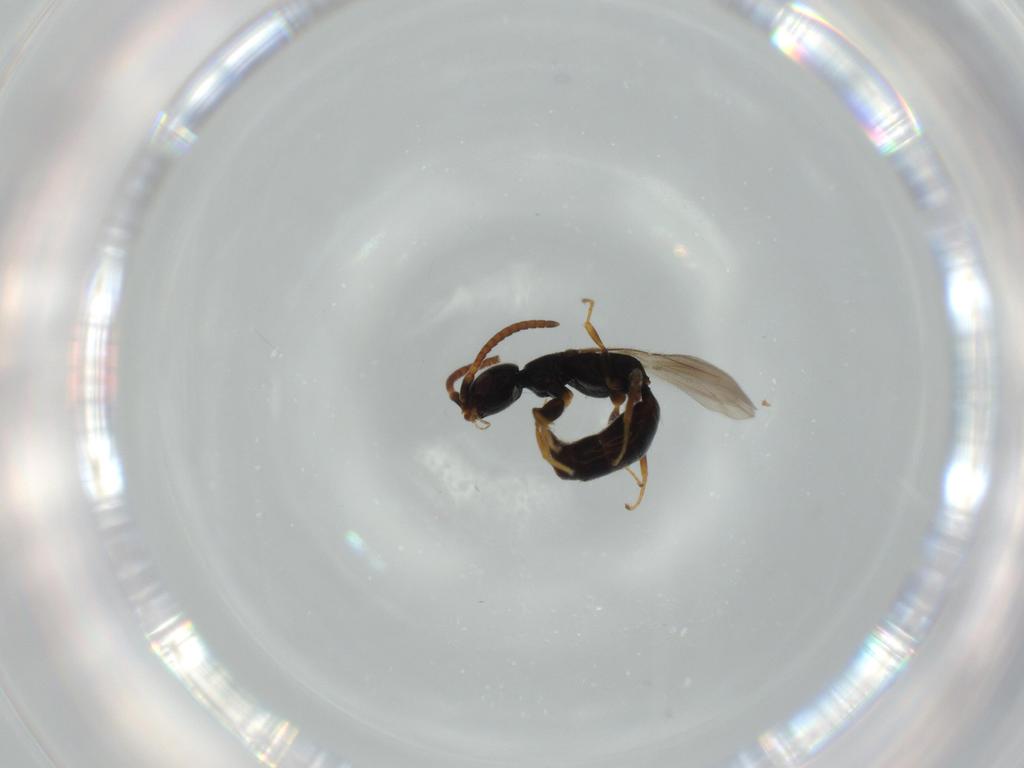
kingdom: Animalia
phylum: Arthropoda
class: Insecta
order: Hymenoptera
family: Bethylidae
